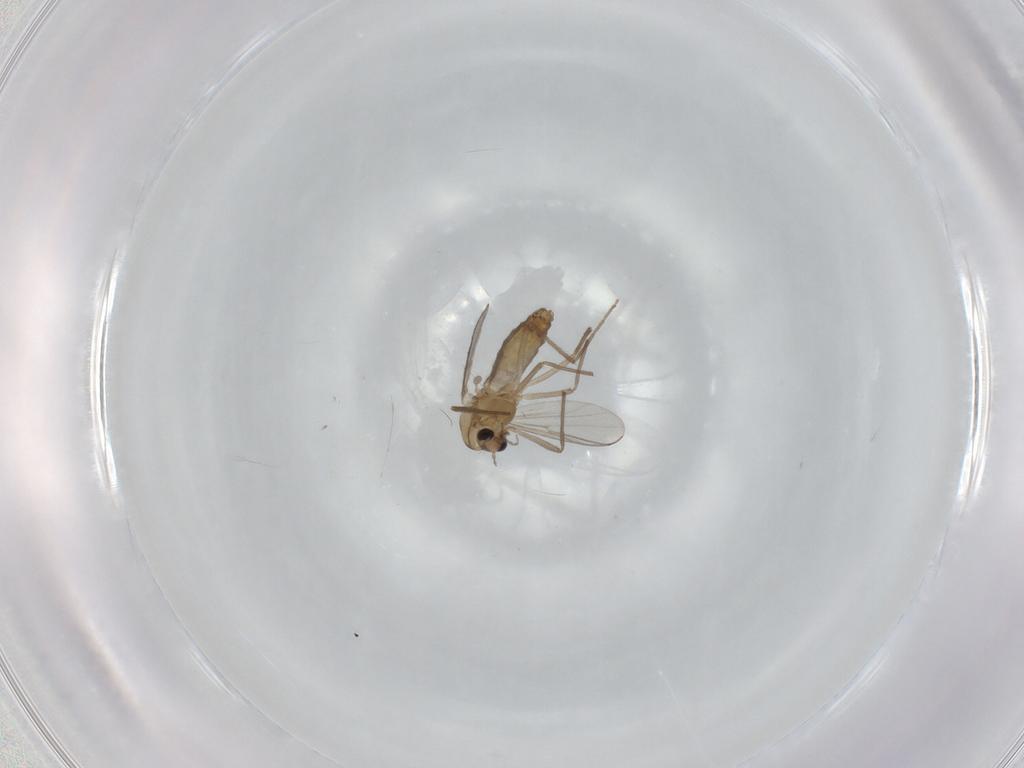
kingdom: Animalia
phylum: Arthropoda
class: Insecta
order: Diptera
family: Chironomidae
